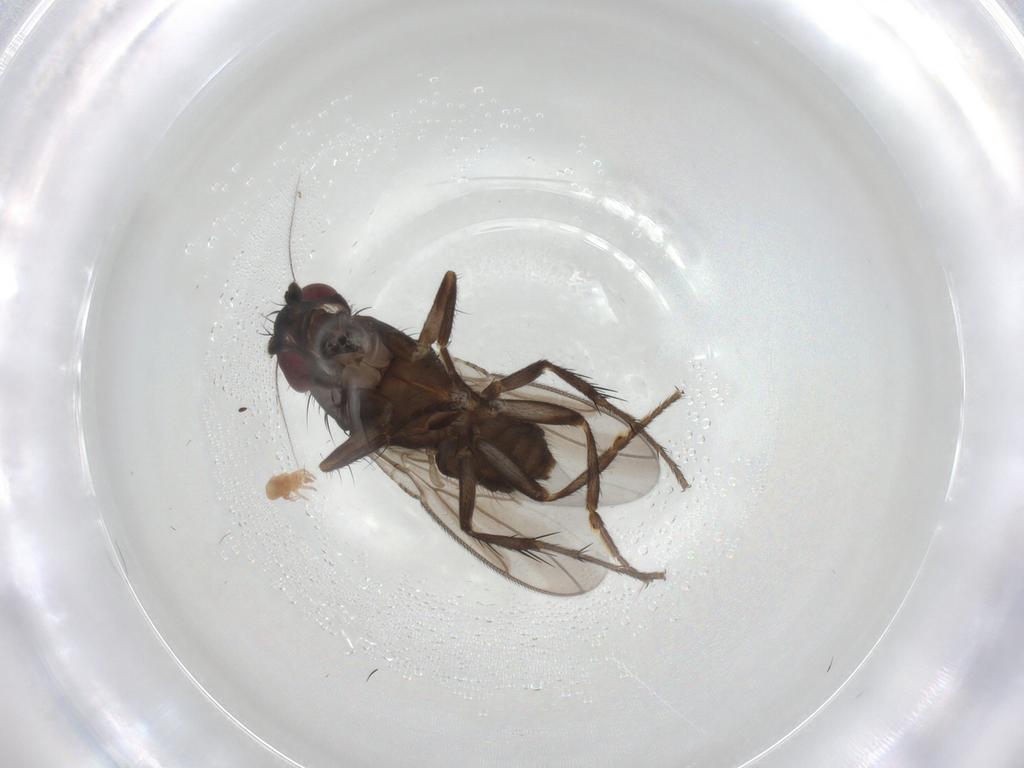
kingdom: Animalia
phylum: Arthropoda
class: Insecta
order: Diptera
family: Sphaeroceridae
